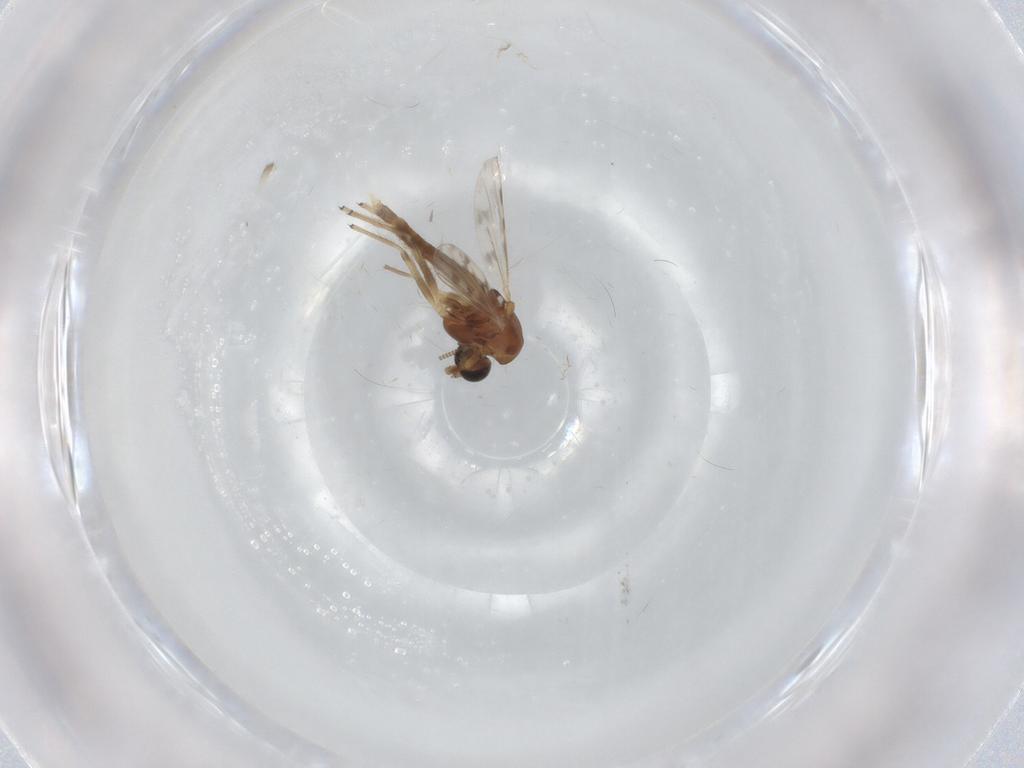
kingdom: Animalia
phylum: Arthropoda
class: Insecta
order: Diptera
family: Chironomidae
